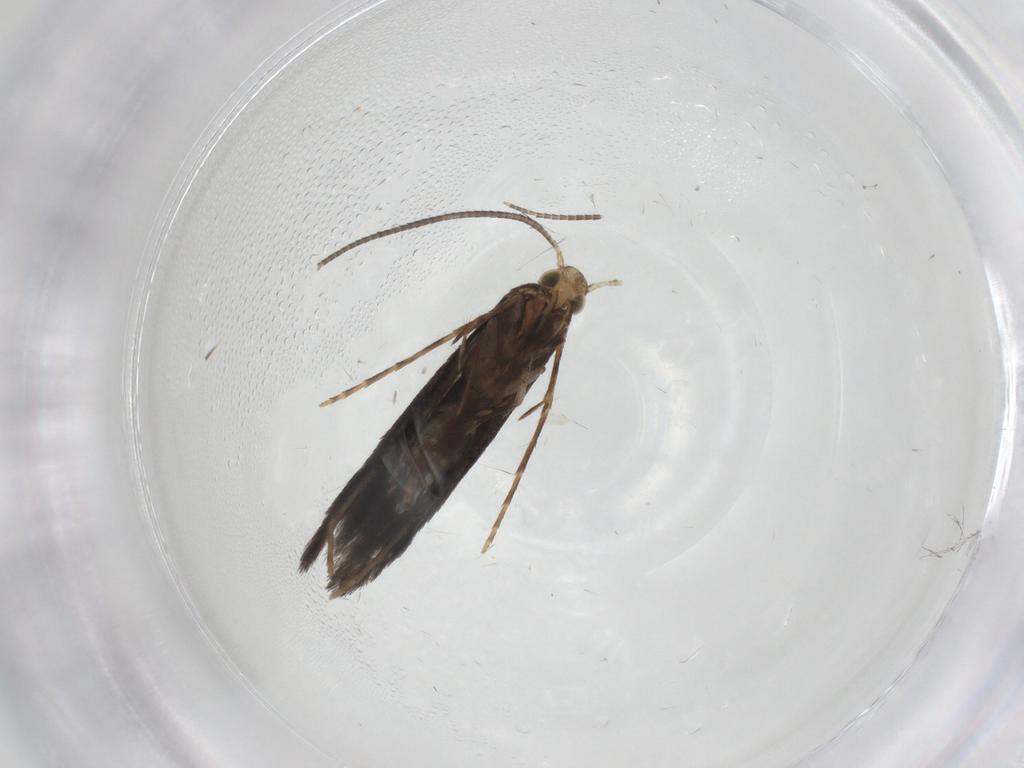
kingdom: Animalia
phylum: Arthropoda
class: Insecta
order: Lepidoptera
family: Gracillariidae
